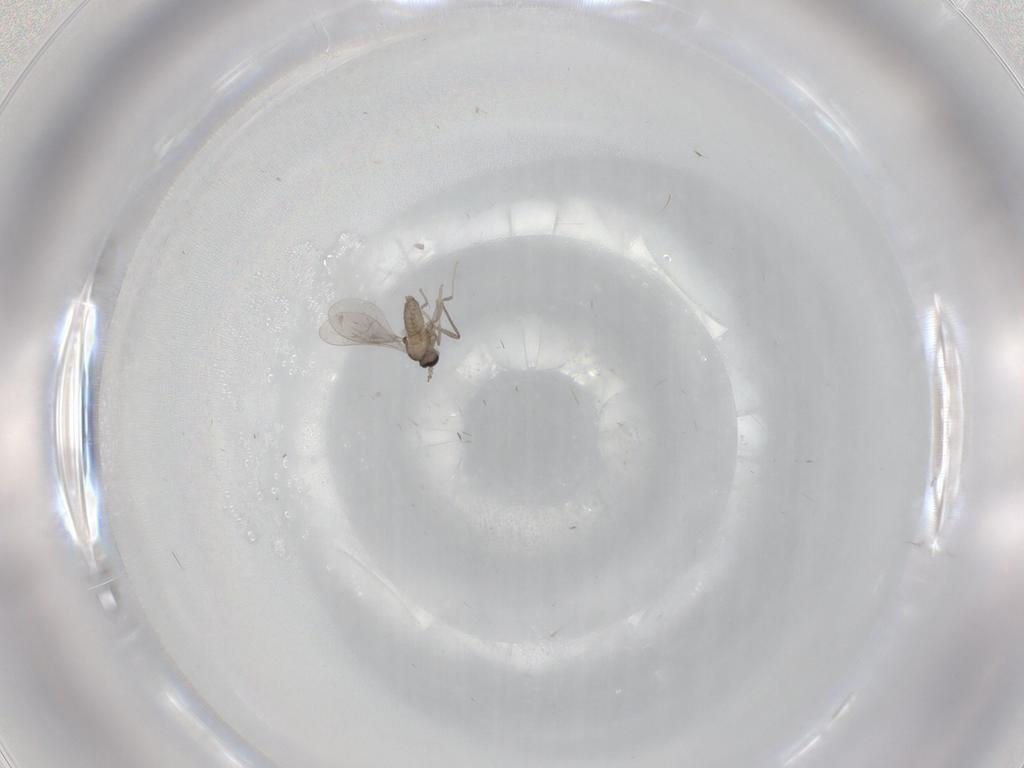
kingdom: Animalia
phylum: Arthropoda
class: Insecta
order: Diptera
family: Cecidomyiidae
